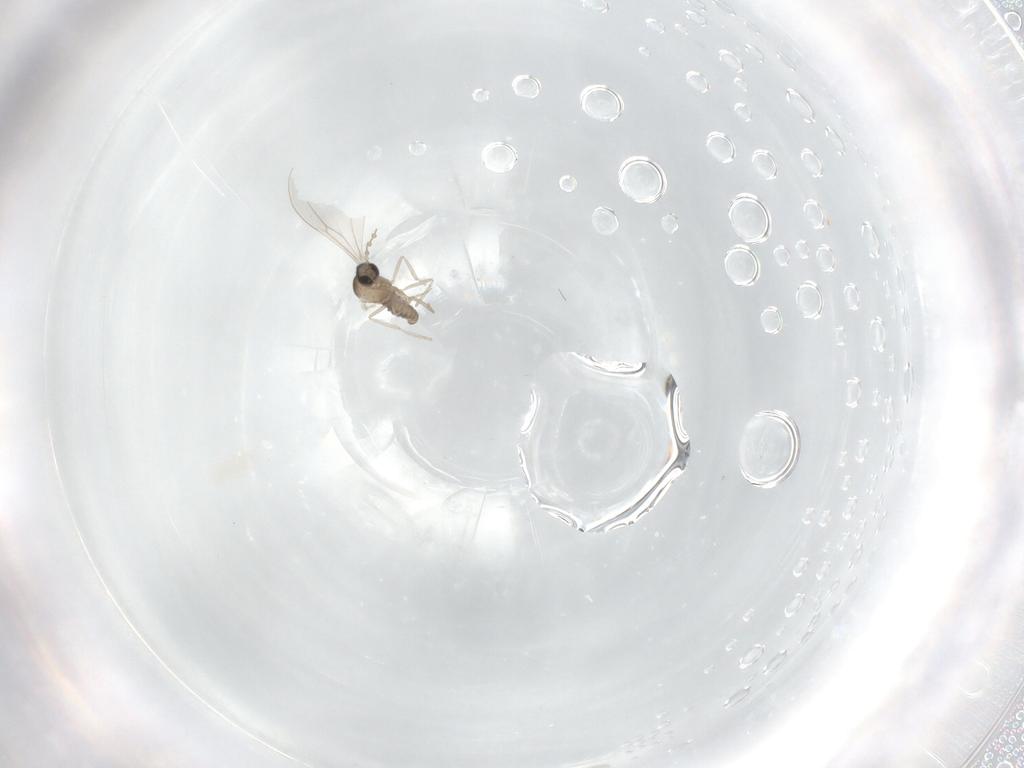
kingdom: Animalia
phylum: Arthropoda
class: Insecta
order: Diptera
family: Cecidomyiidae
